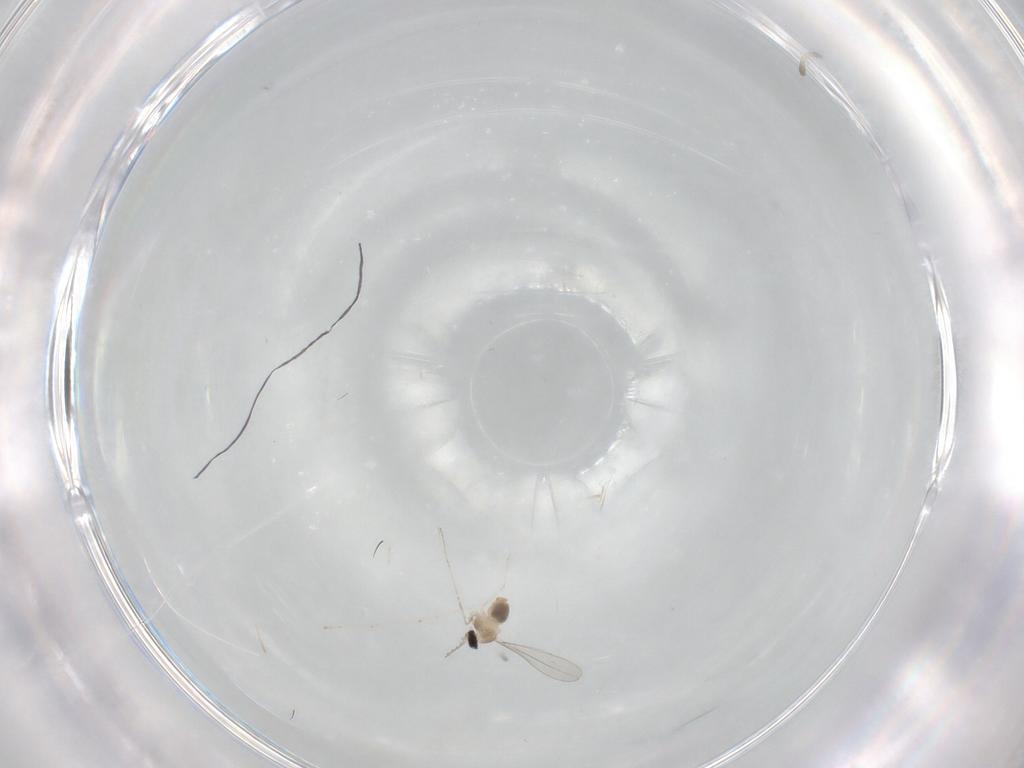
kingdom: Animalia
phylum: Arthropoda
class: Insecta
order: Diptera
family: Cecidomyiidae
